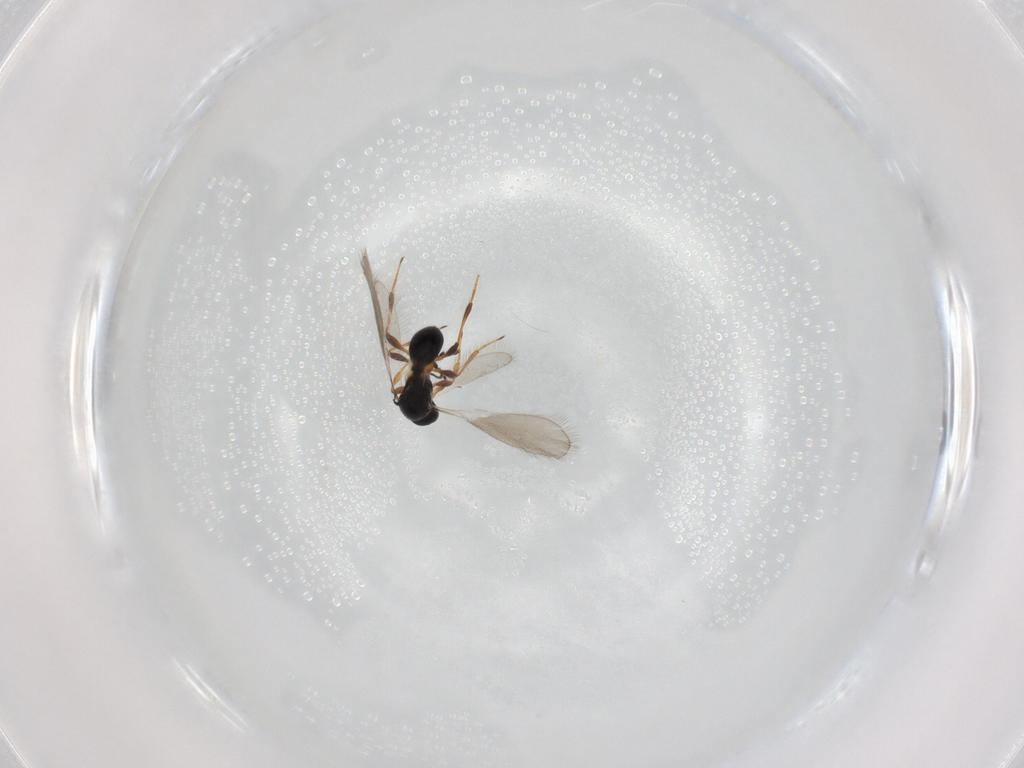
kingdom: Animalia
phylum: Arthropoda
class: Insecta
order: Hymenoptera
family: Platygastridae
